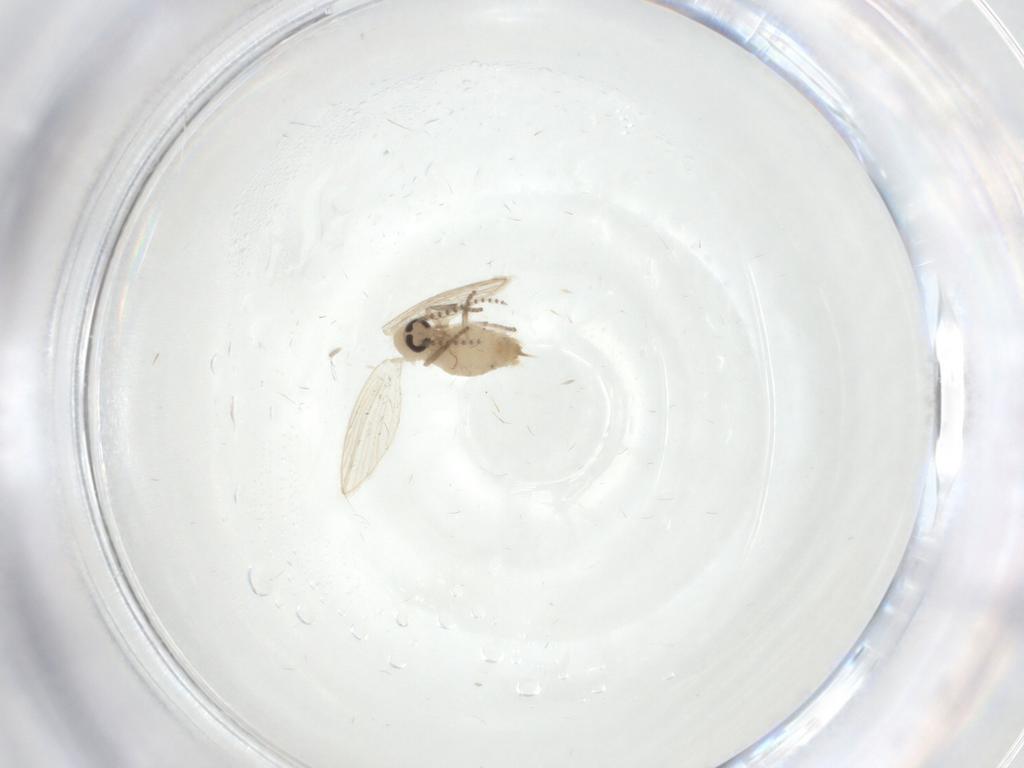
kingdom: Animalia
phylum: Arthropoda
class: Insecta
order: Diptera
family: Psychodidae
